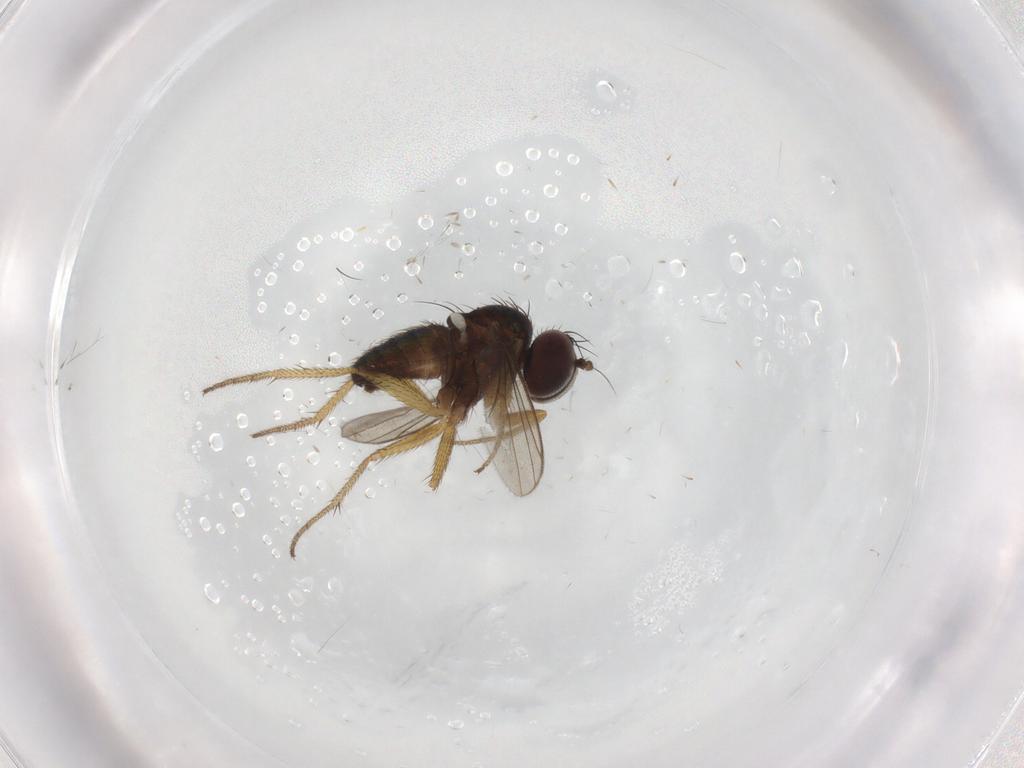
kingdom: Animalia
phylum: Arthropoda
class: Insecta
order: Diptera
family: Dolichopodidae
